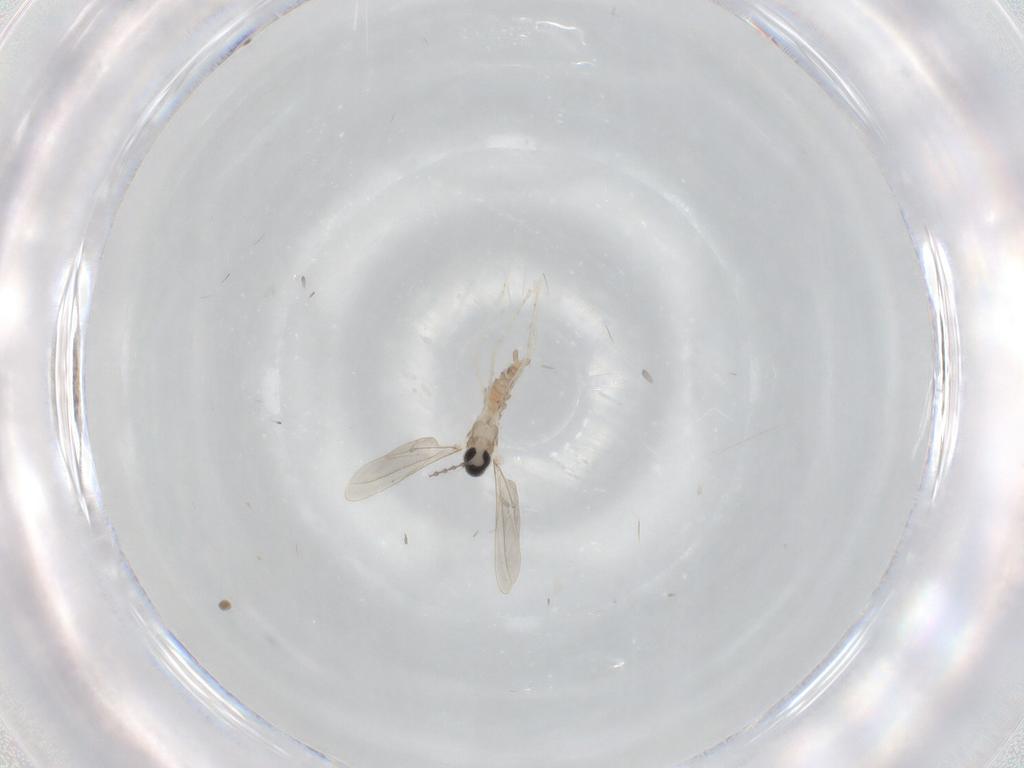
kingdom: Animalia
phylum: Arthropoda
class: Insecta
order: Diptera
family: Cecidomyiidae
